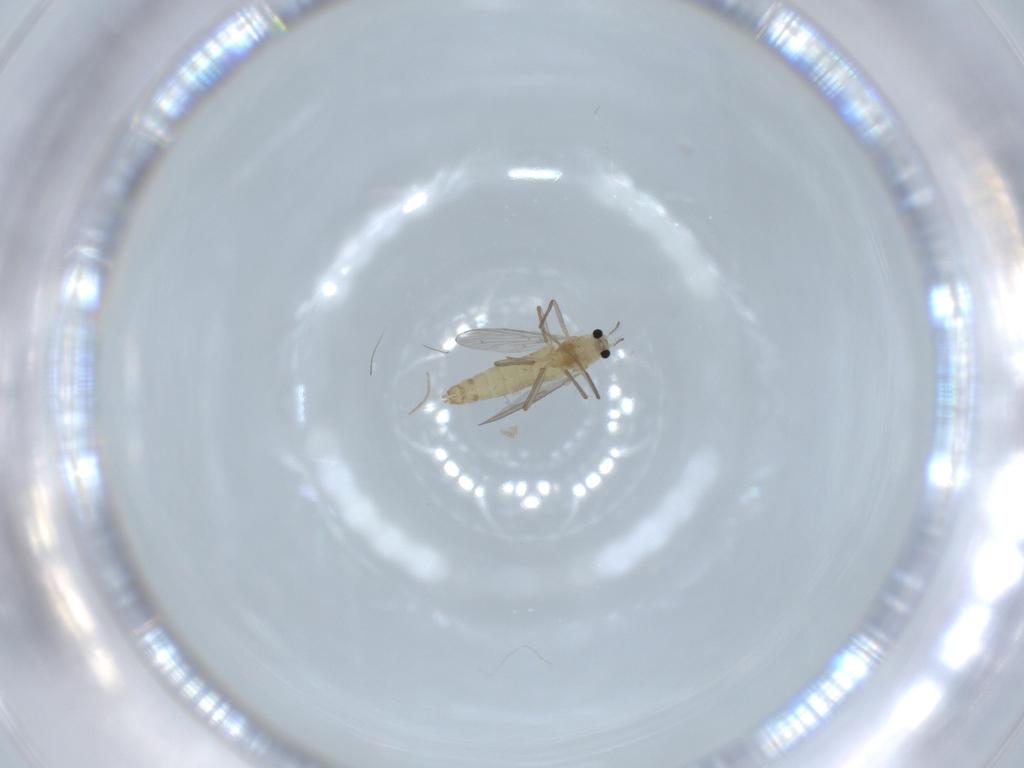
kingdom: Animalia
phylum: Arthropoda
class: Insecta
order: Diptera
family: Chironomidae
